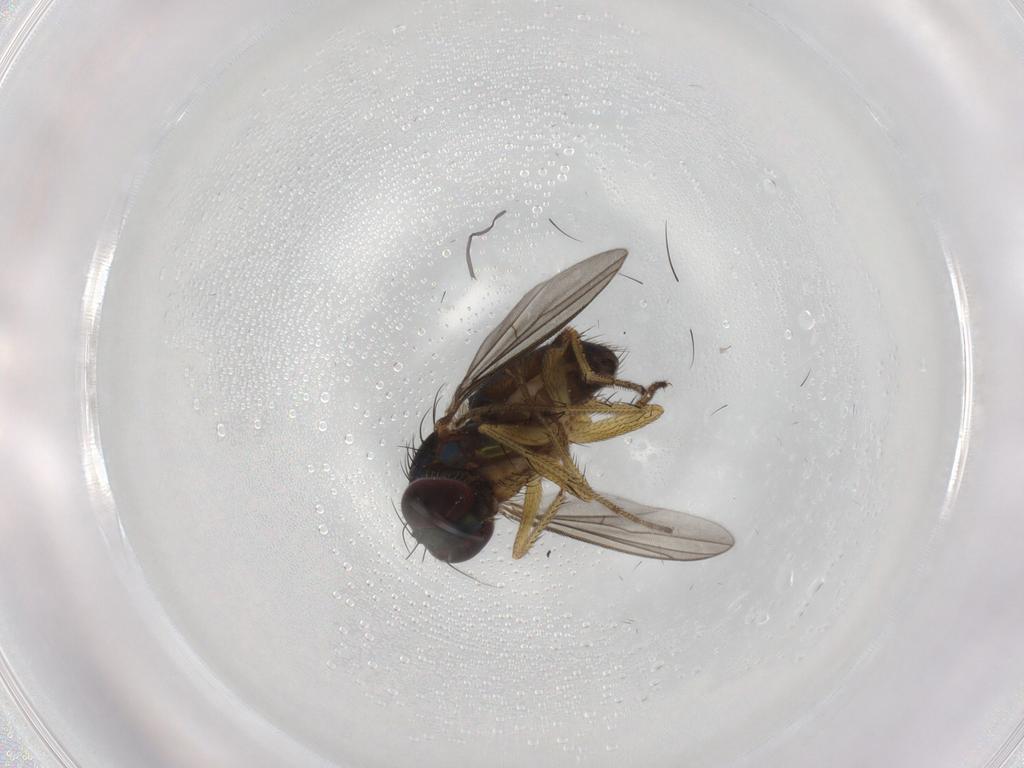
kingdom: Animalia
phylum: Arthropoda
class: Insecta
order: Diptera
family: Dolichopodidae
